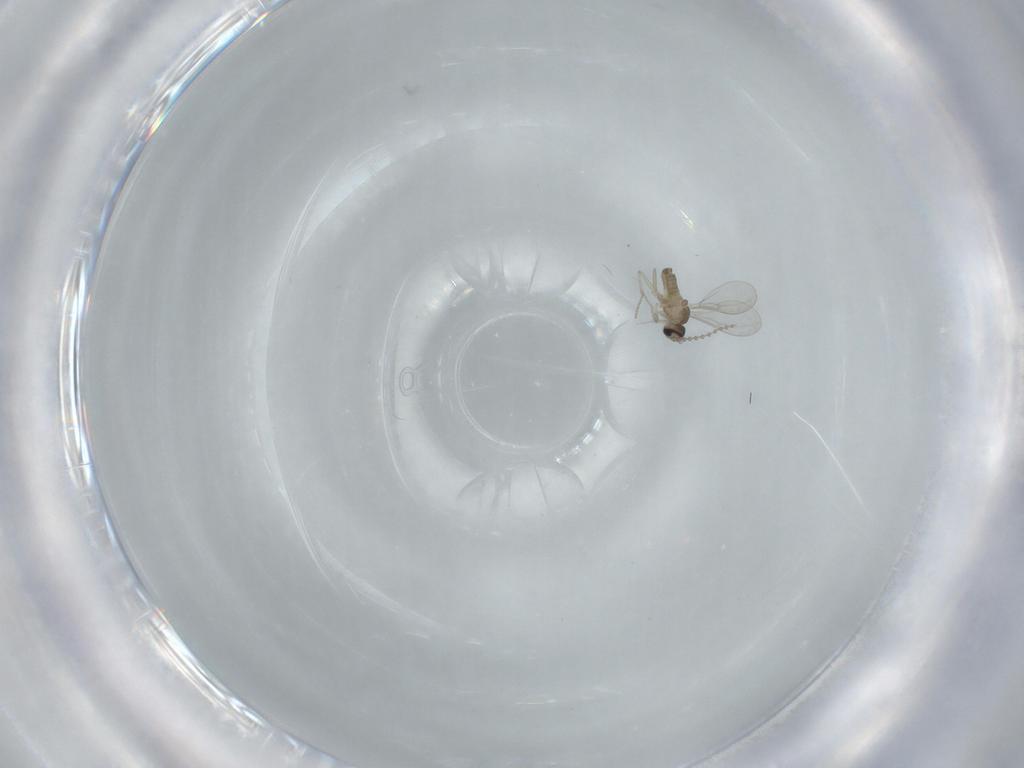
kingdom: Animalia
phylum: Arthropoda
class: Insecta
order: Diptera
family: Cecidomyiidae
